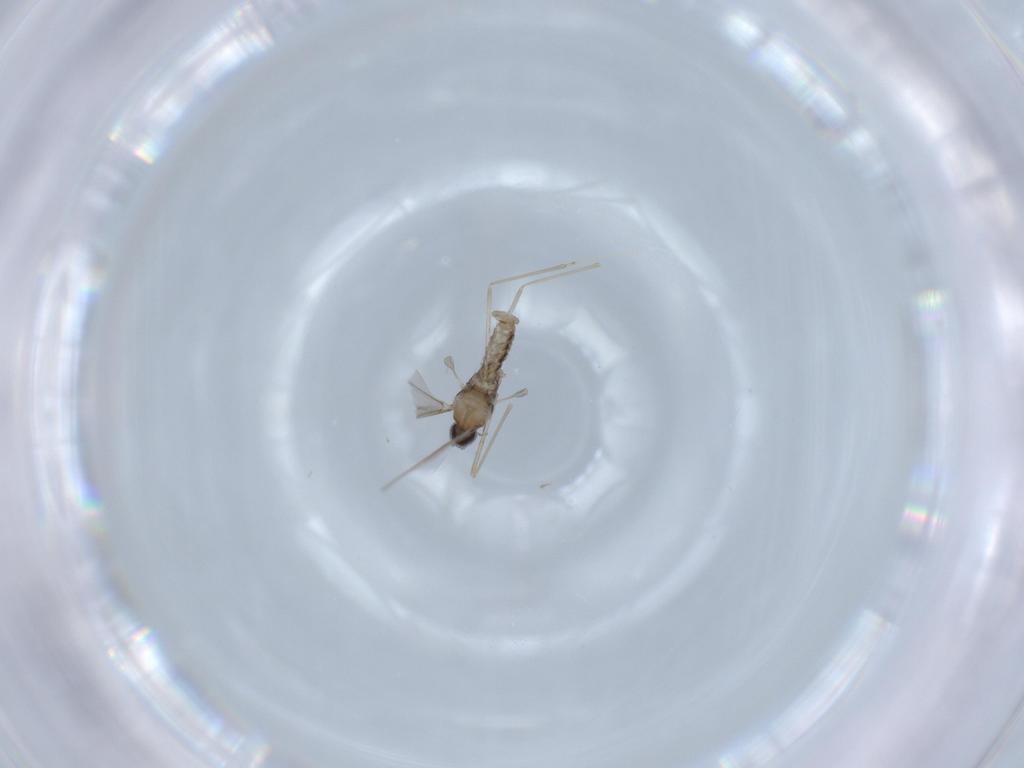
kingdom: Animalia
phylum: Arthropoda
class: Insecta
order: Diptera
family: Cecidomyiidae
